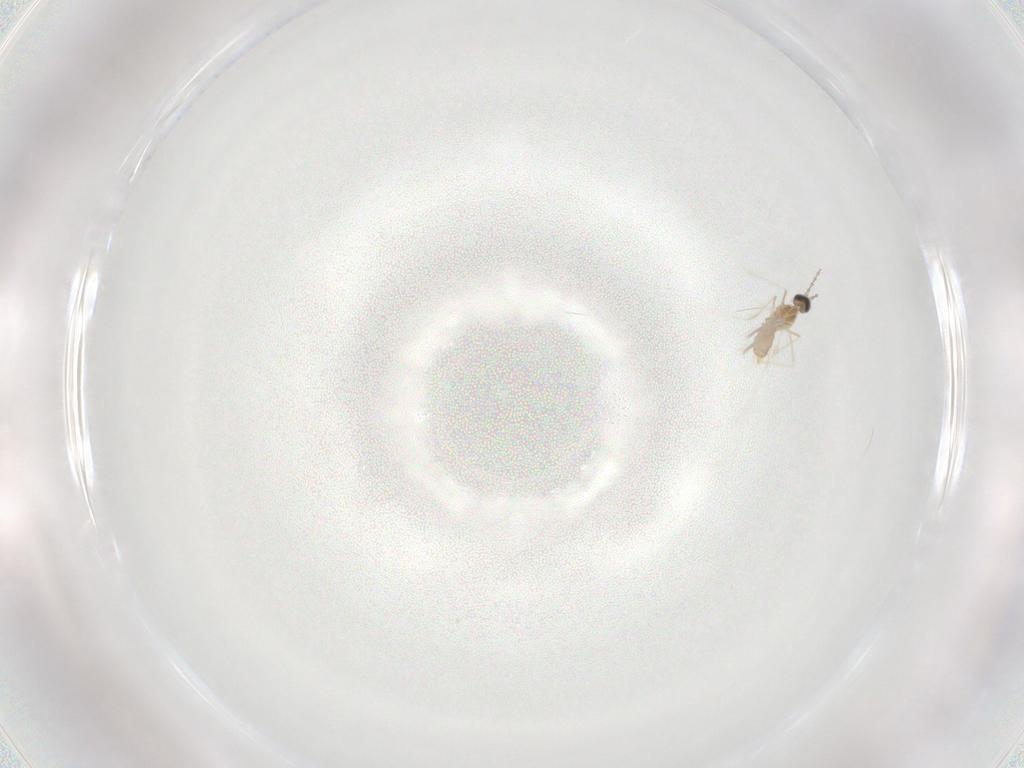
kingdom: Animalia
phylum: Arthropoda
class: Insecta
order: Diptera
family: Cecidomyiidae
